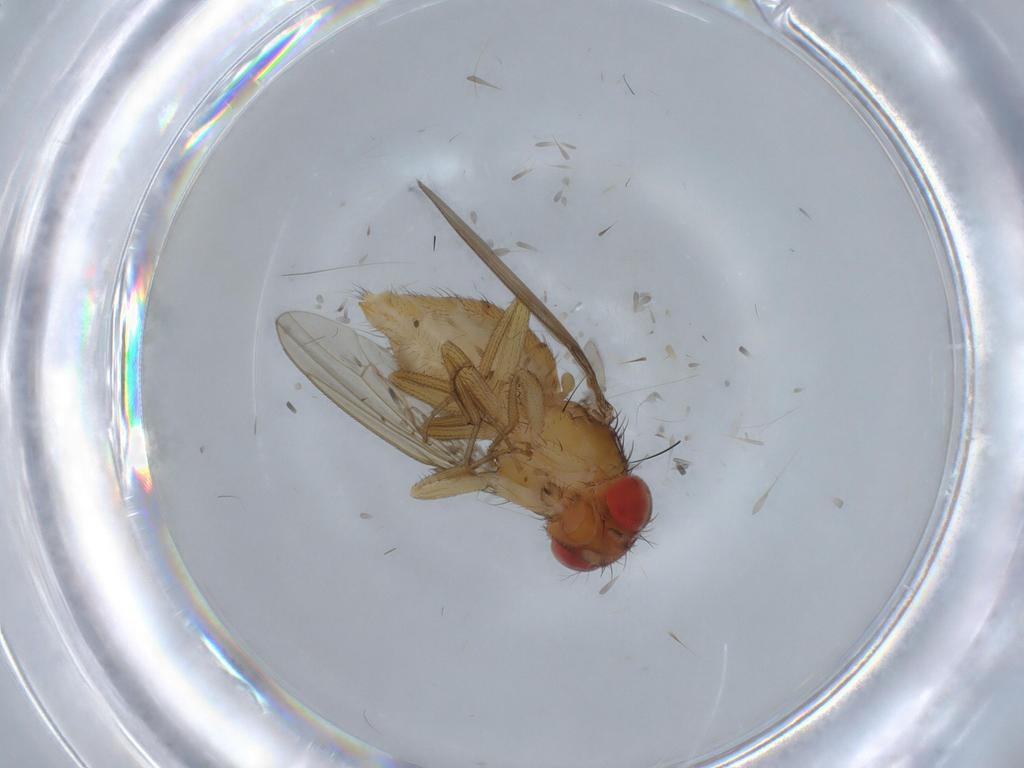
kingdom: Animalia
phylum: Arthropoda
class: Insecta
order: Diptera
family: Drosophilidae
